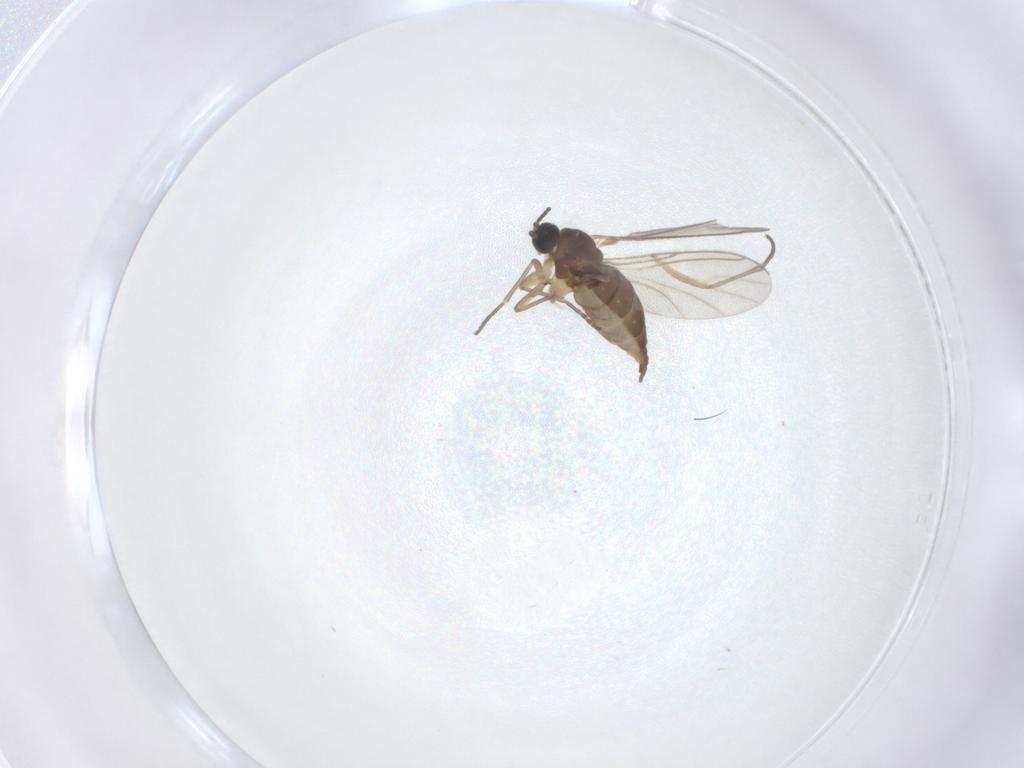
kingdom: Animalia
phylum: Arthropoda
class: Insecta
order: Diptera
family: Sciaridae
